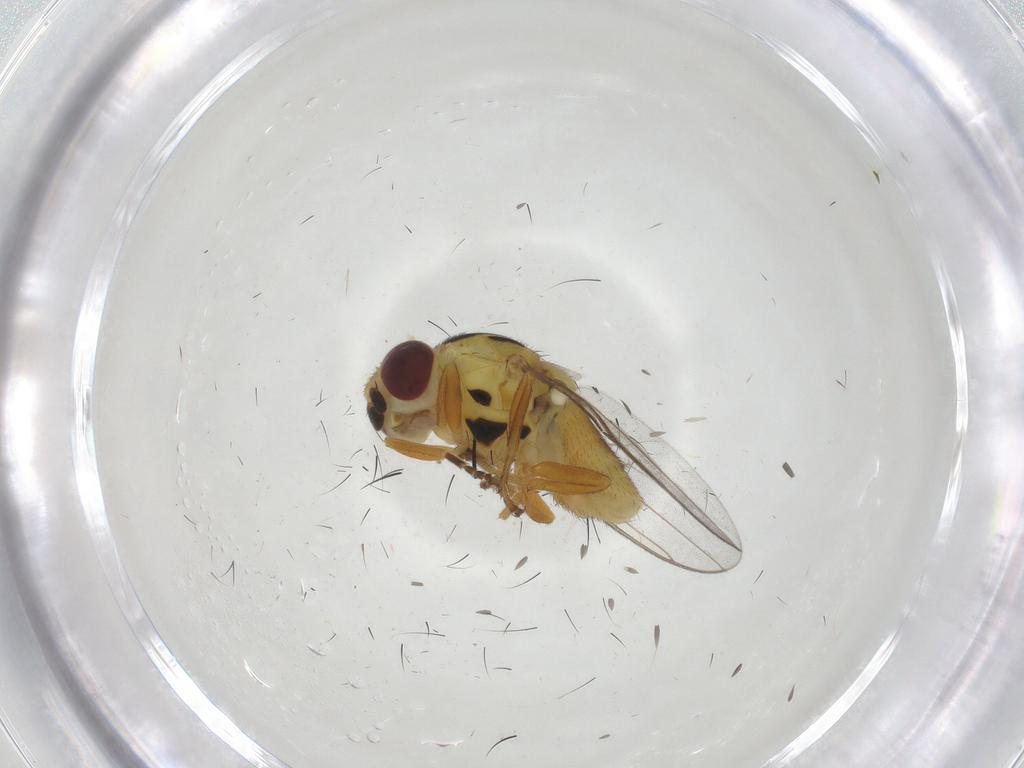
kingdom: Animalia
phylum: Arthropoda
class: Insecta
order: Diptera
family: Chloropidae
